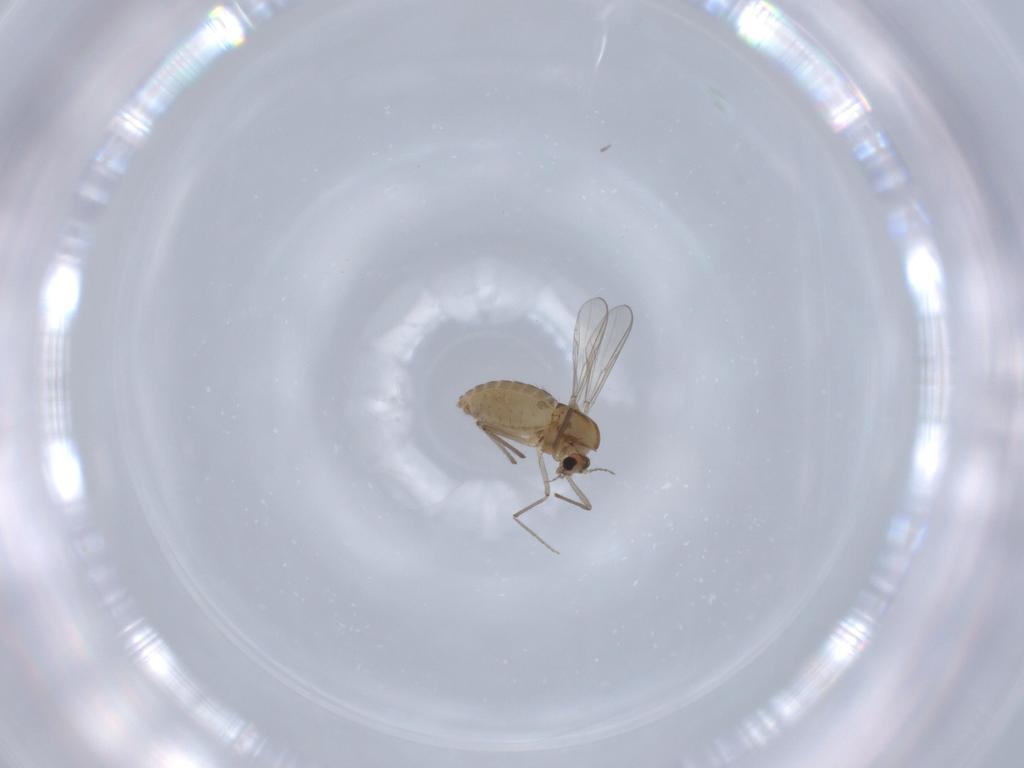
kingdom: Animalia
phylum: Arthropoda
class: Insecta
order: Diptera
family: Chironomidae
